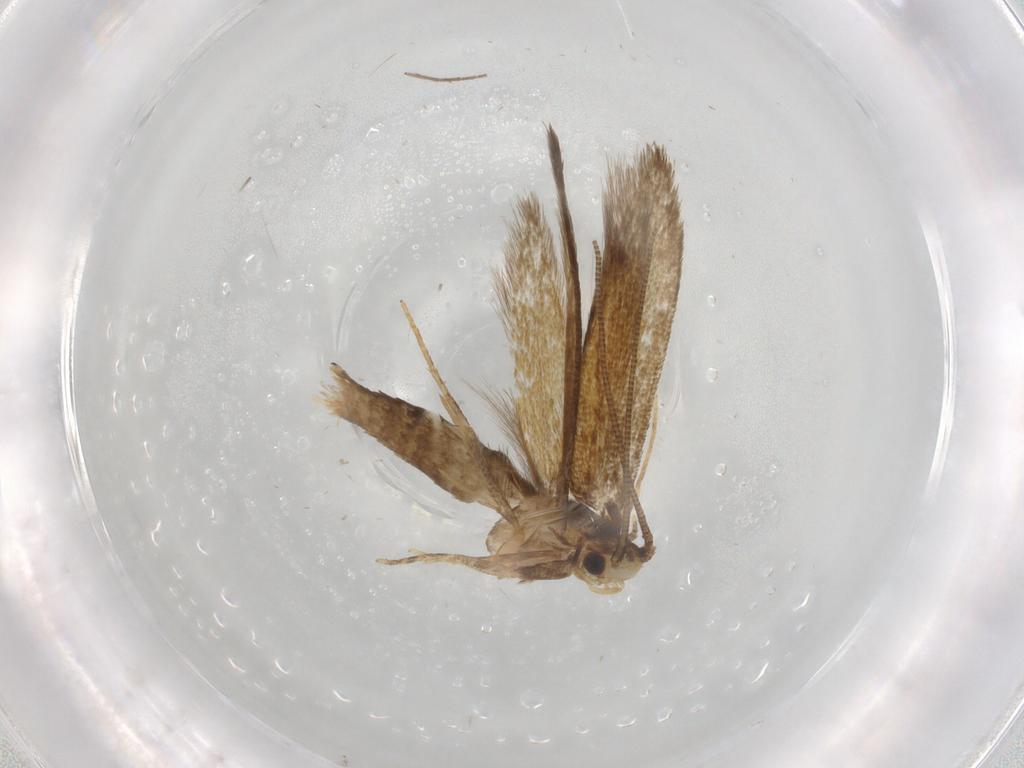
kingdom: Animalia
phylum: Arthropoda
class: Insecta
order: Lepidoptera
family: Tineidae
